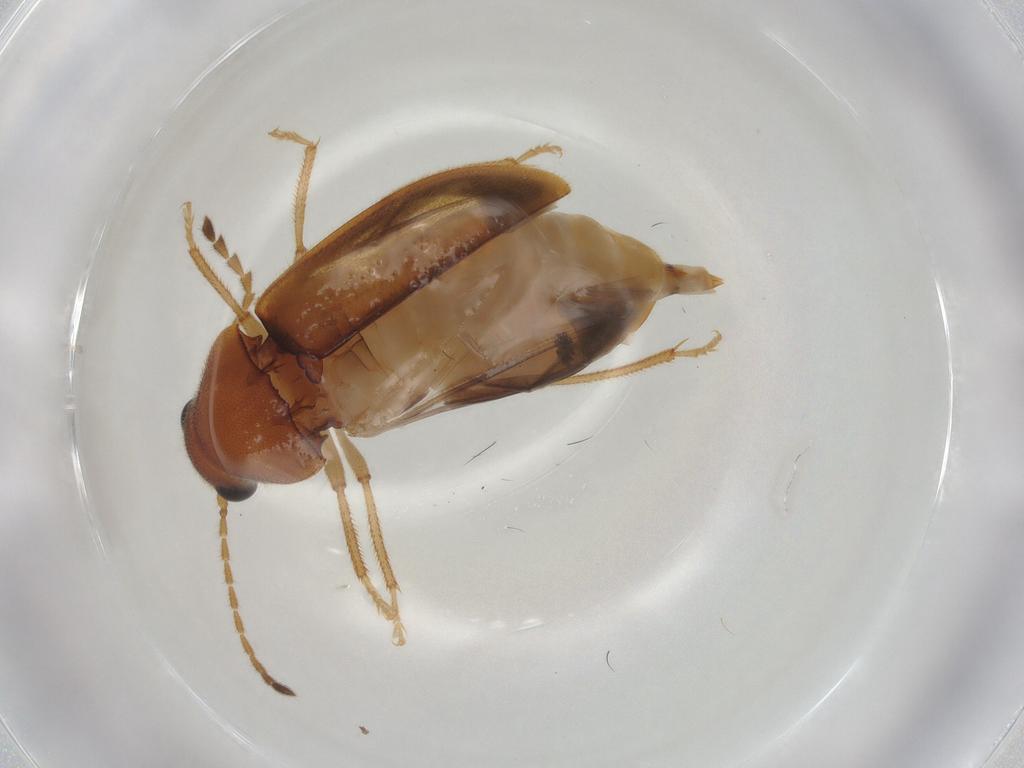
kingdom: Animalia
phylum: Arthropoda
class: Insecta
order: Coleoptera
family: Ptilodactylidae
